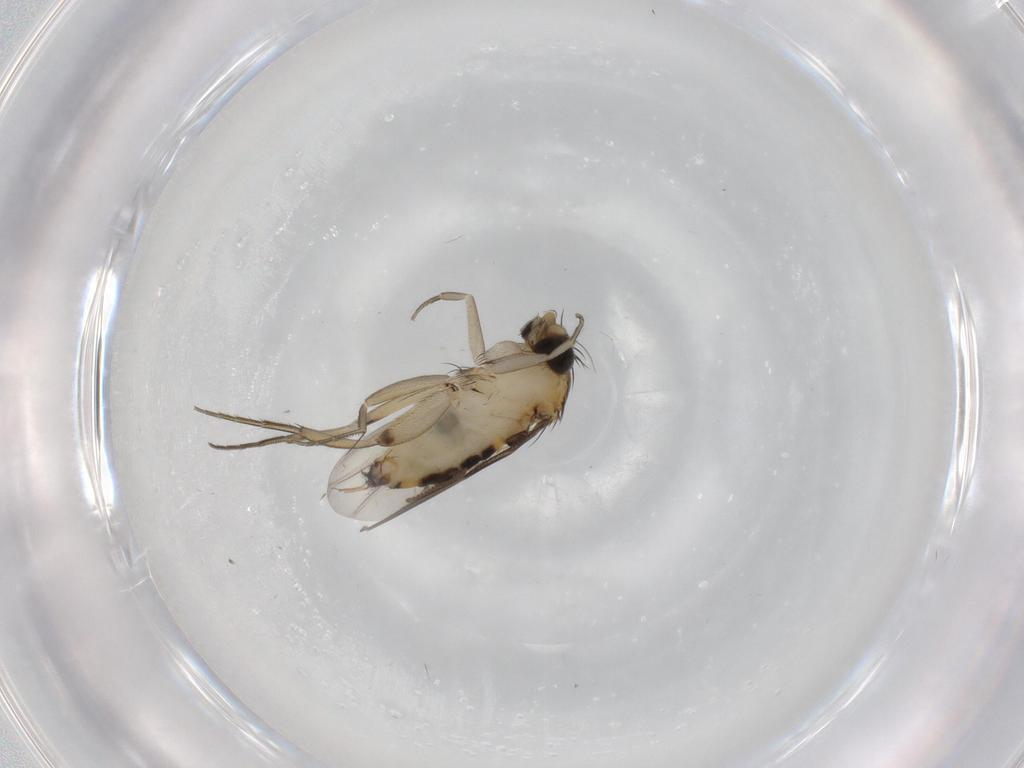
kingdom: Animalia
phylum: Arthropoda
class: Insecta
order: Diptera
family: Phoridae
